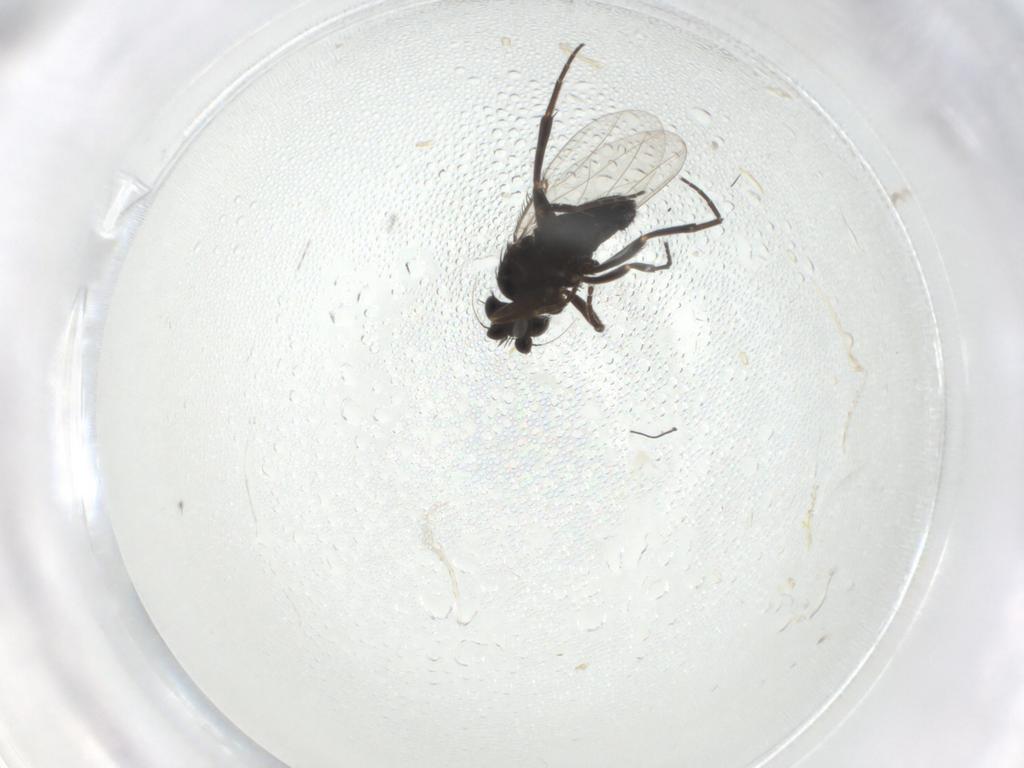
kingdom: Animalia
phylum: Arthropoda
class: Insecta
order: Diptera
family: Phoridae
